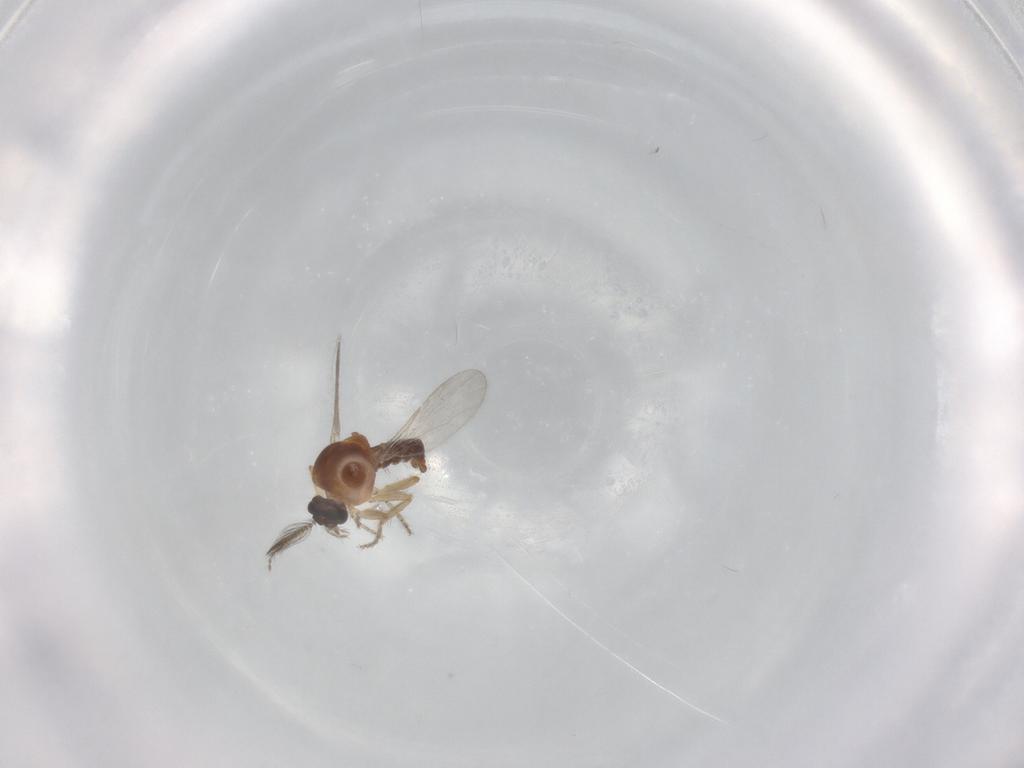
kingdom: Animalia
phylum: Arthropoda
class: Insecta
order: Diptera
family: Ceratopogonidae
